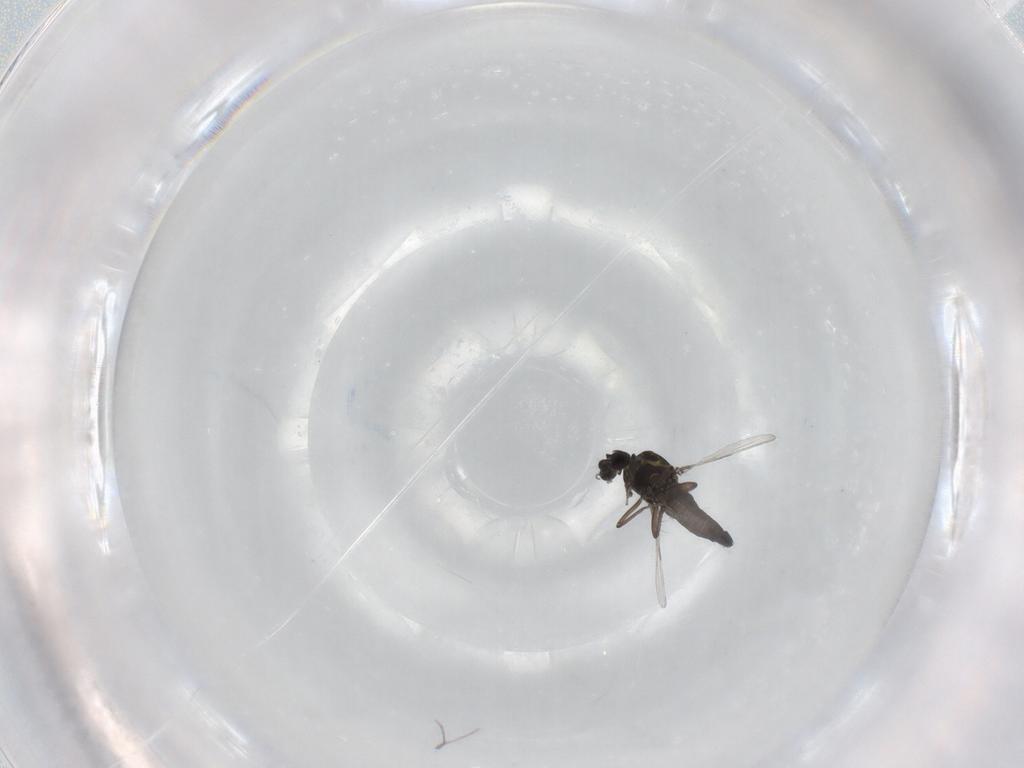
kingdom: Animalia
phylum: Arthropoda
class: Insecta
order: Diptera
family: Ceratopogonidae
